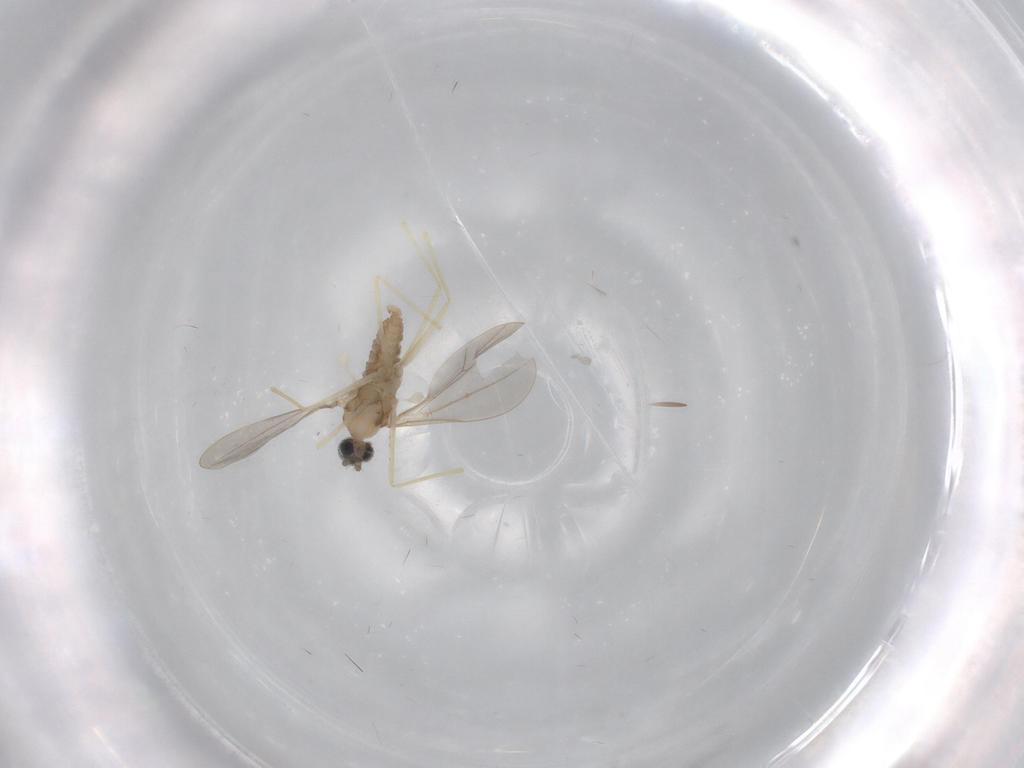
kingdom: Animalia
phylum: Arthropoda
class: Insecta
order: Diptera
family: Cecidomyiidae
